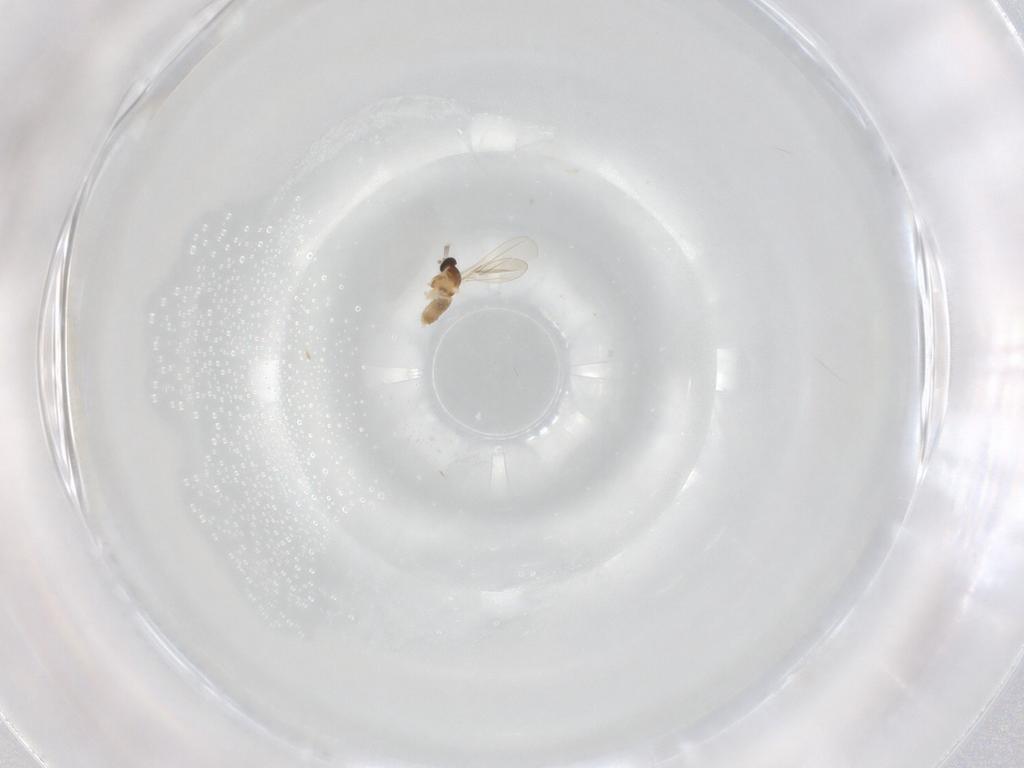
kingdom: Animalia
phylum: Arthropoda
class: Insecta
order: Diptera
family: Cecidomyiidae
